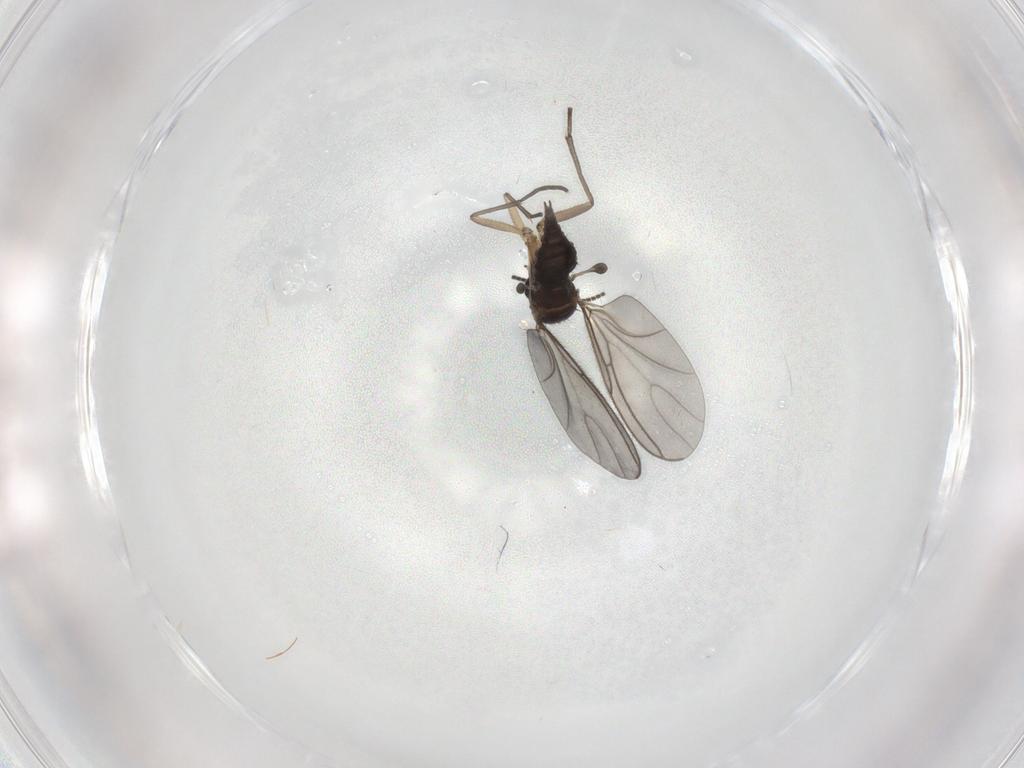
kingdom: Animalia
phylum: Arthropoda
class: Insecta
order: Diptera
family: Sciaridae
